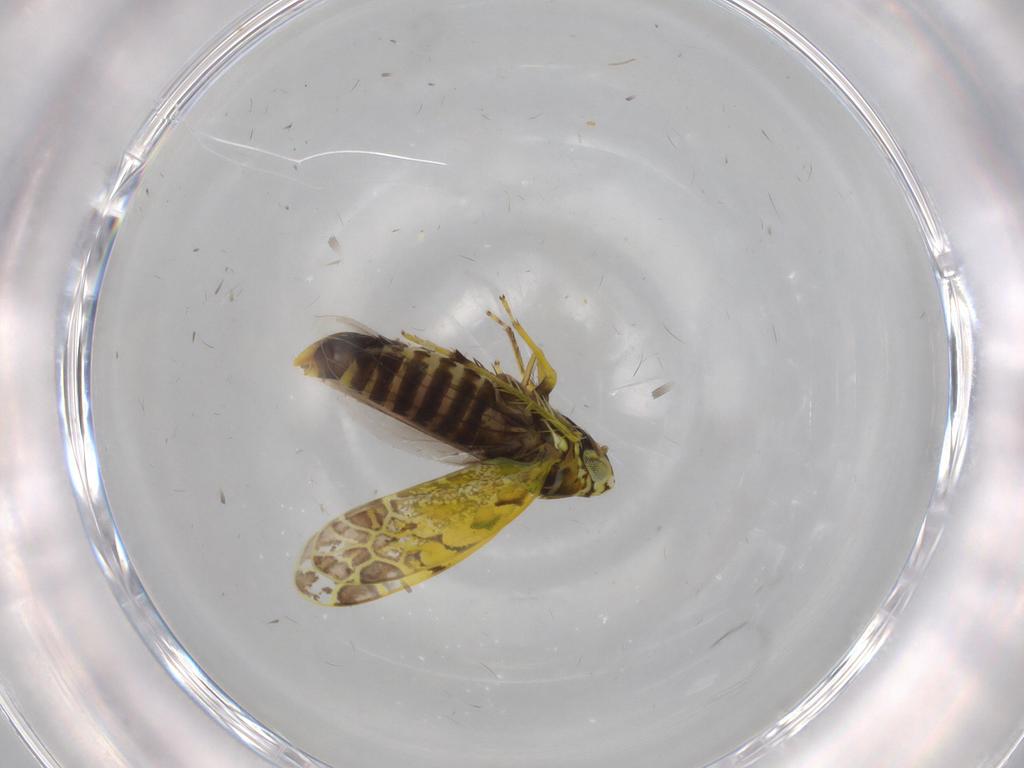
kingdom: Animalia
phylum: Arthropoda
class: Insecta
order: Hemiptera
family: Cicadellidae
